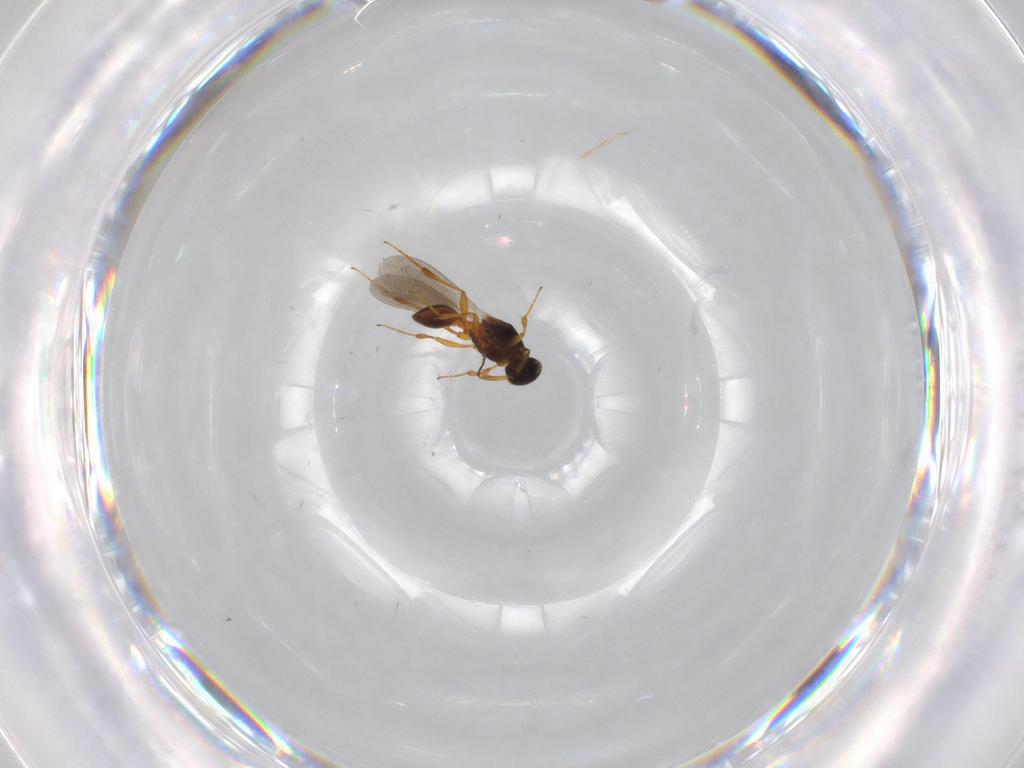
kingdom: Animalia
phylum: Arthropoda
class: Insecta
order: Hymenoptera
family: Platygastridae
